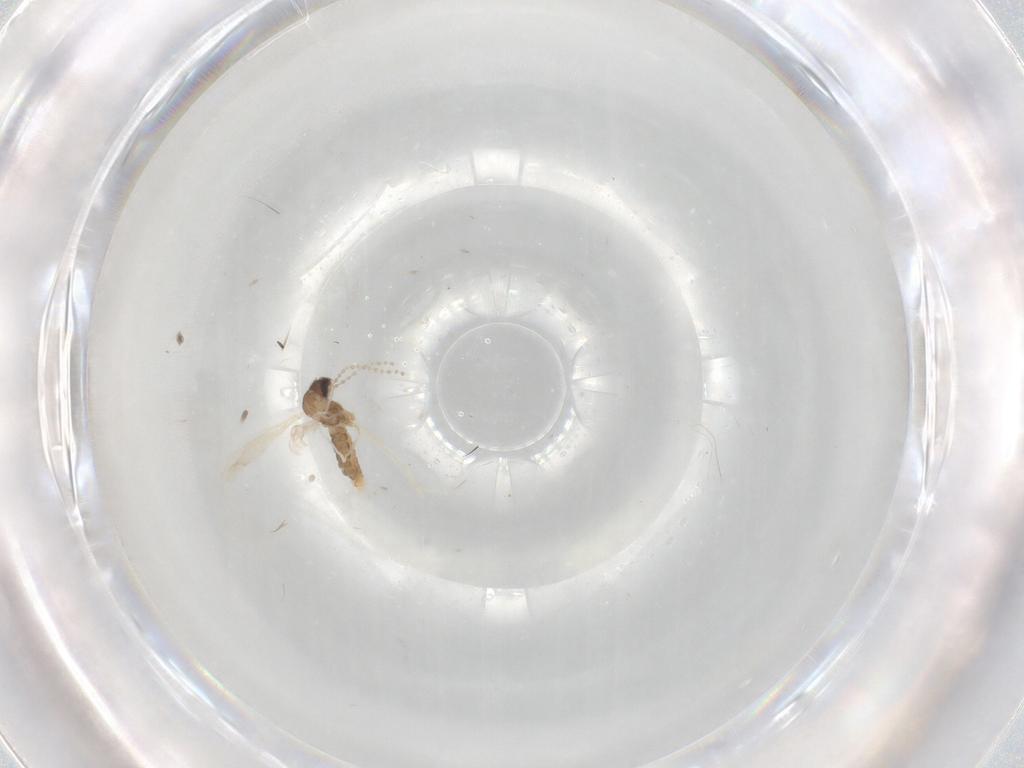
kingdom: Animalia
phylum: Arthropoda
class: Insecta
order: Diptera
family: Cecidomyiidae
